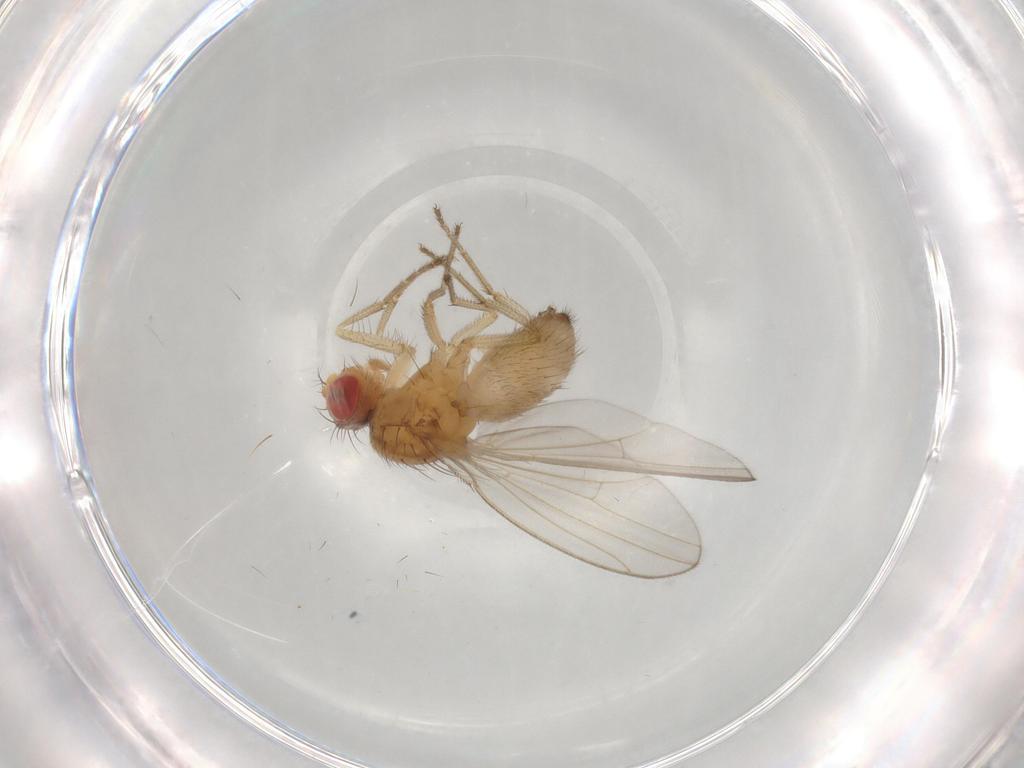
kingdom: Animalia
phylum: Arthropoda
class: Insecta
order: Diptera
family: Drosophilidae
